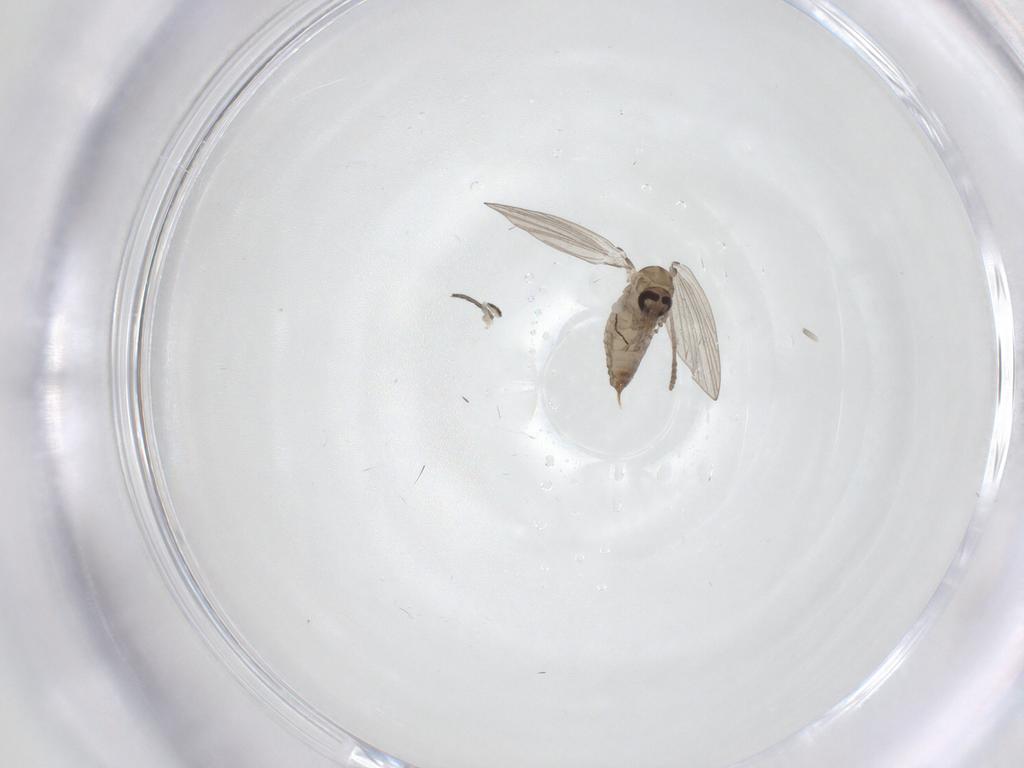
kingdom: Animalia
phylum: Arthropoda
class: Insecta
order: Diptera
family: Psychodidae
